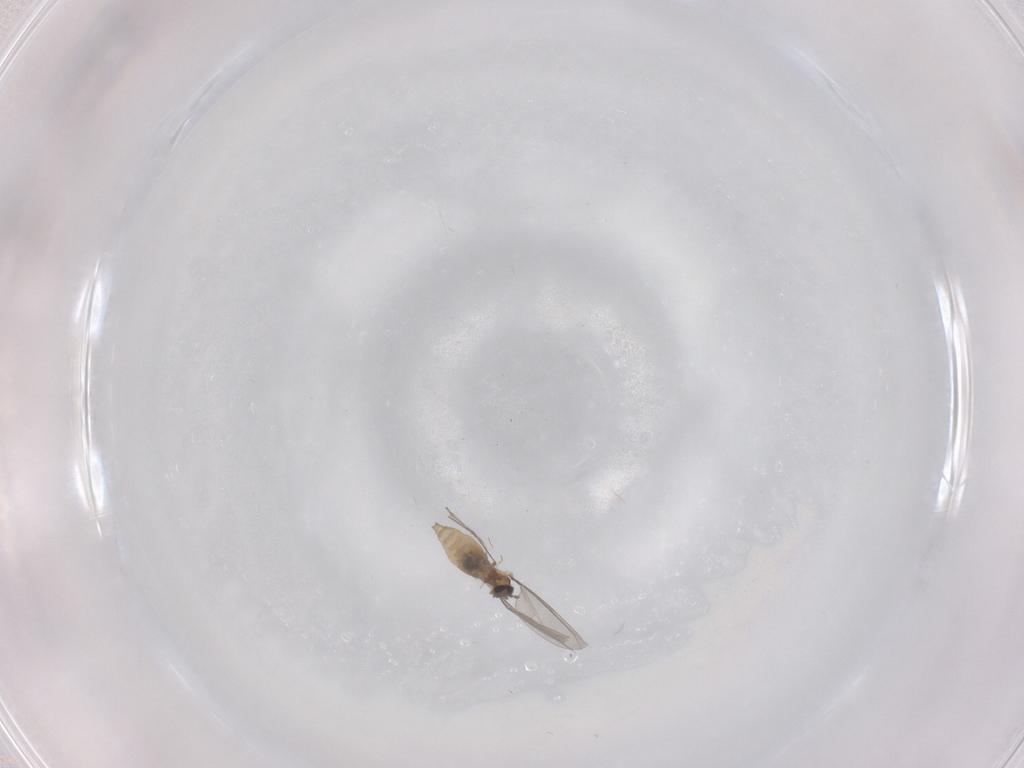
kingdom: Animalia
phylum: Arthropoda
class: Insecta
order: Diptera
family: Cecidomyiidae
